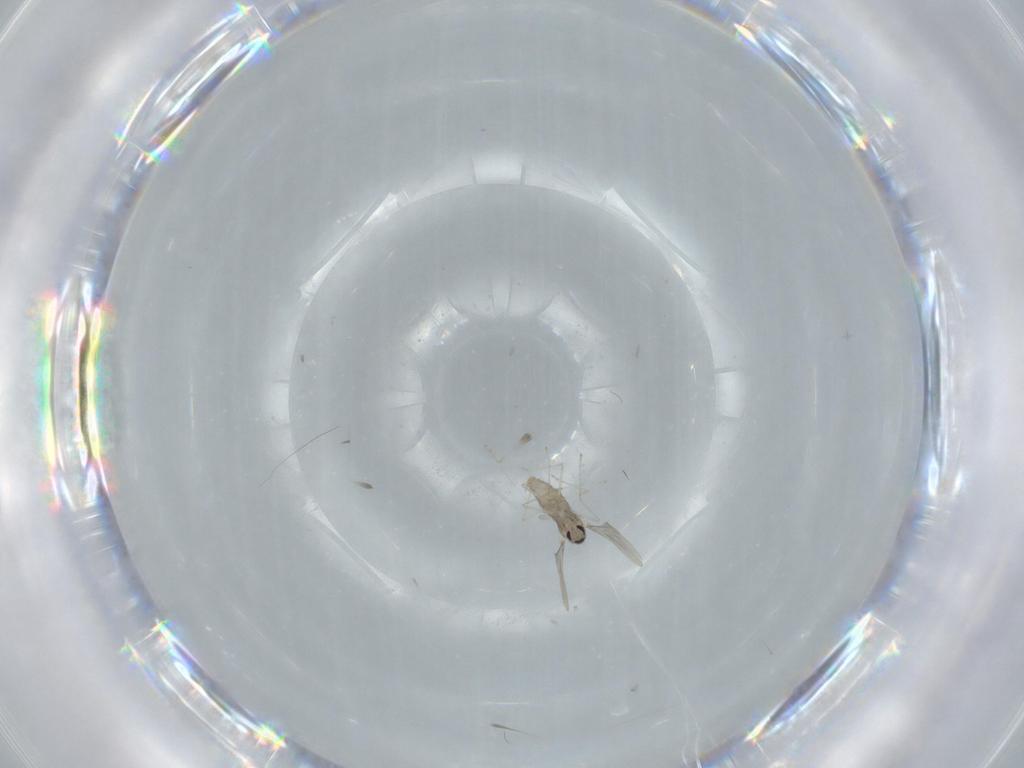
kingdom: Animalia
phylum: Arthropoda
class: Insecta
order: Diptera
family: Cecidomyiidae
